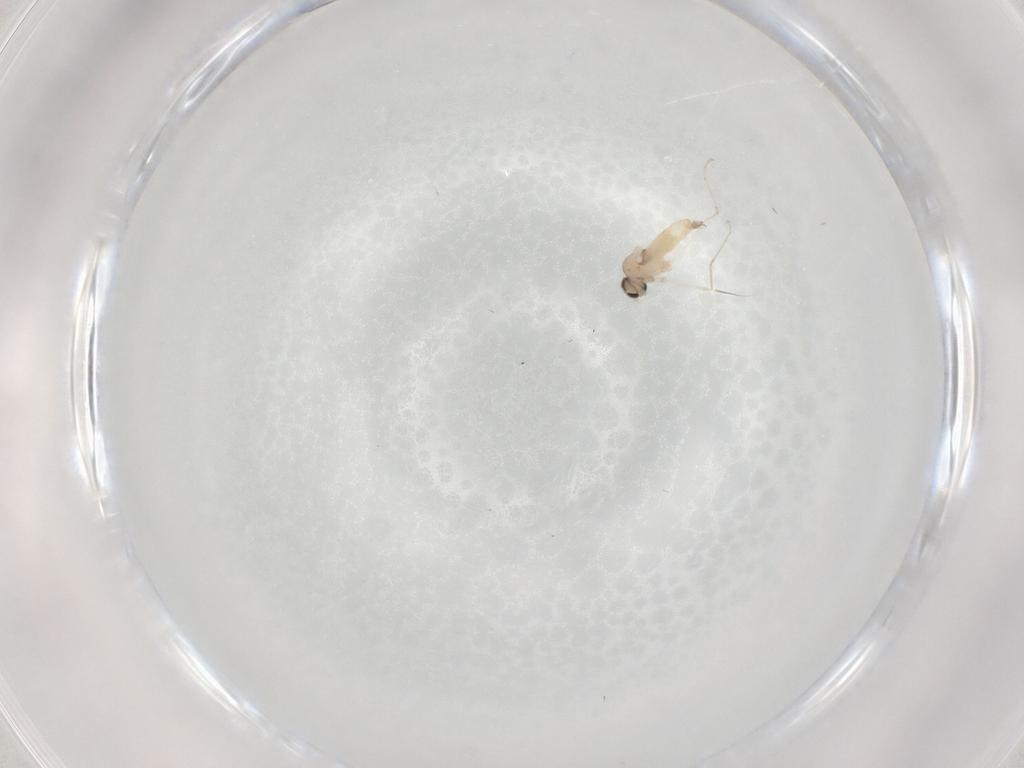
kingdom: Animalia
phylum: Arthropoda
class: Insecta
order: Diptera
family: Cecidomyiidae
